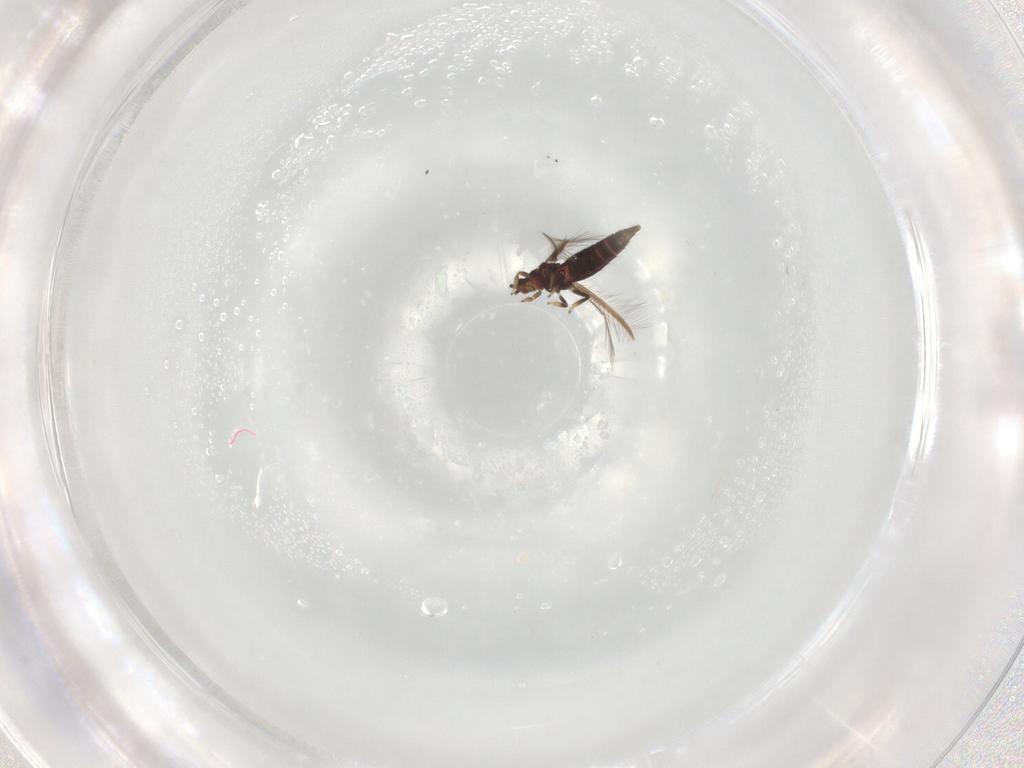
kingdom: Animalia
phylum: Arthropoda
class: Insecta
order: Thysanoptera
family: Thripidae
